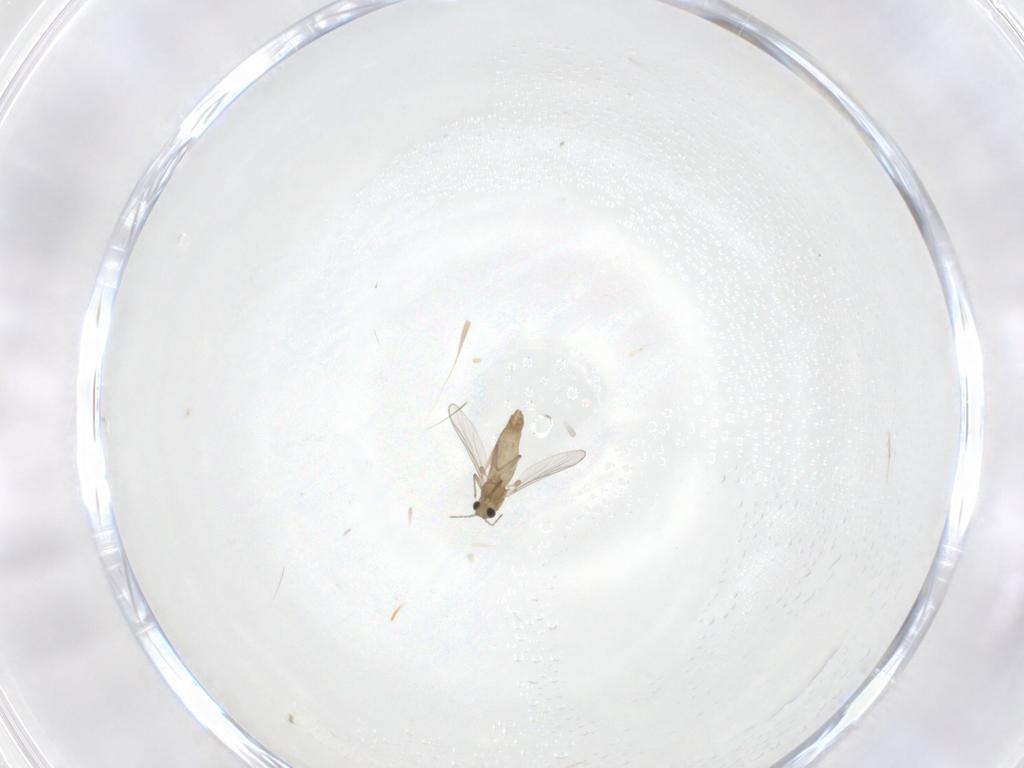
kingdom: Animalia
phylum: Arthropoda
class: Insecta
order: Diptera
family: Chironomidae
